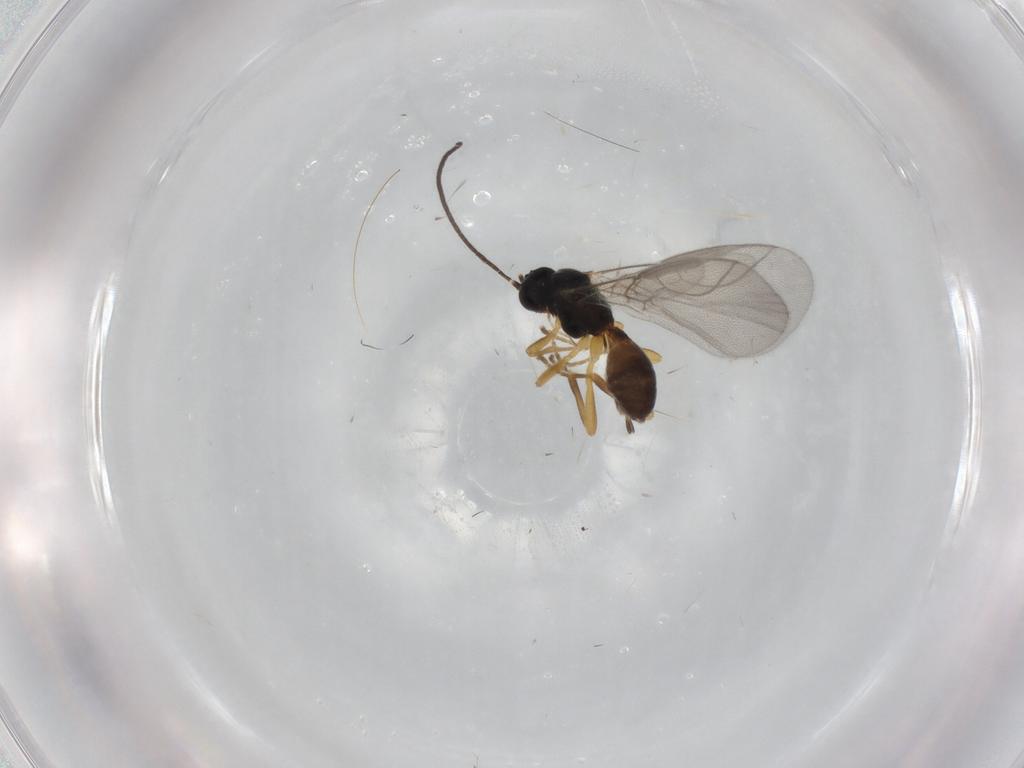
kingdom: Animalia
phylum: Arthropoda
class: Insecta
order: Hymenoptera
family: Braconidae
